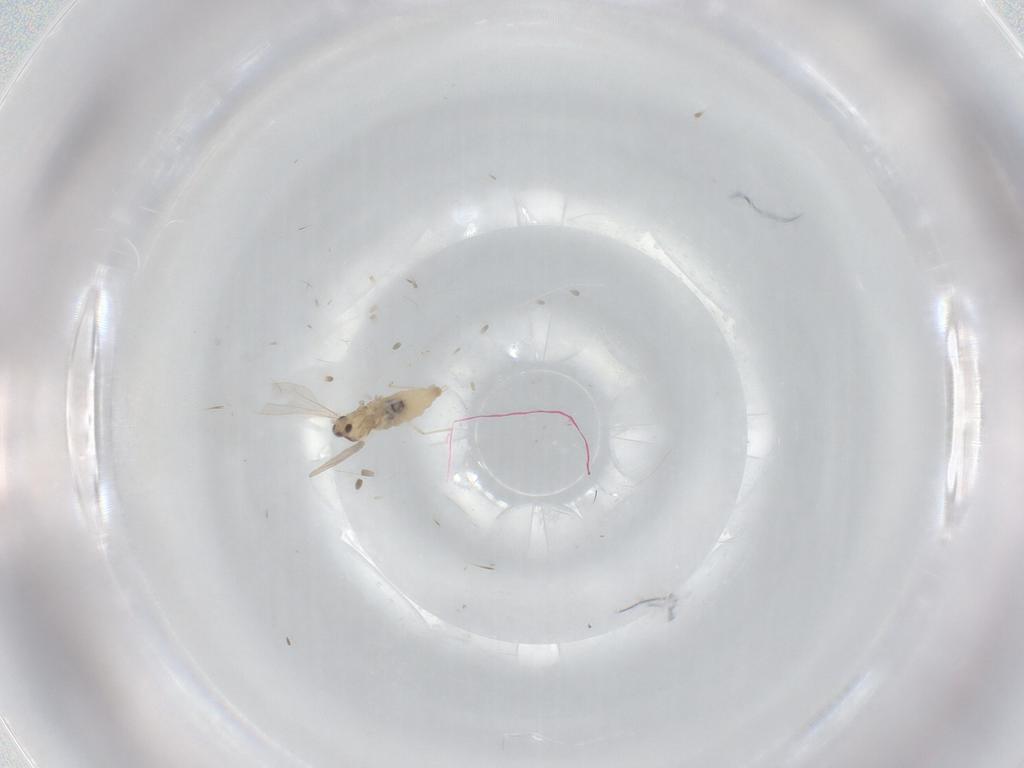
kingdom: Animalia
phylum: Arthropoda
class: Insecta
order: Diptera
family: Cecidomyiidae
